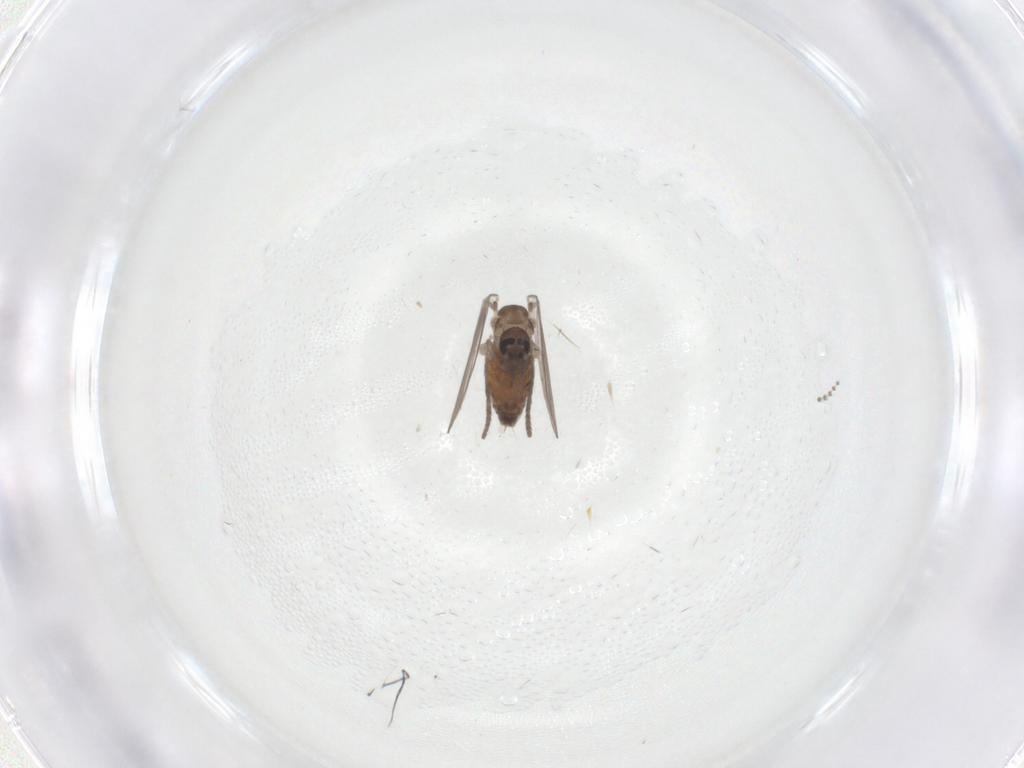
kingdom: Animalia
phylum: Arthropoda
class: Insecta
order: Diptera
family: Psychodidae
